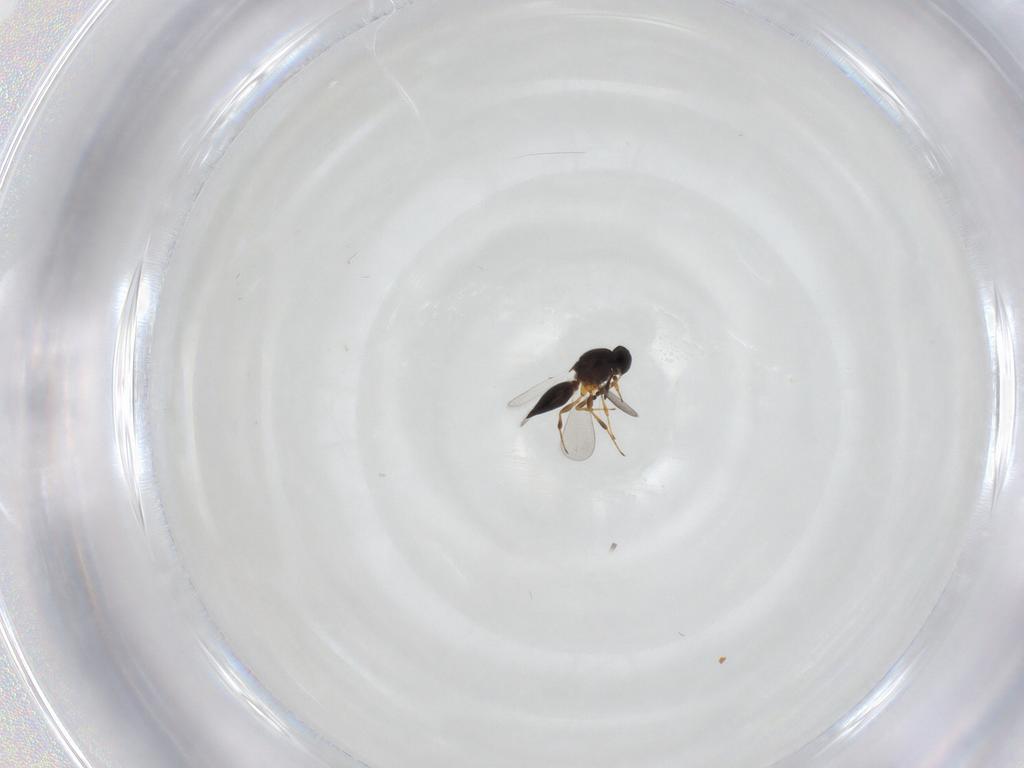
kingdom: Animalia
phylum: Arthropoda
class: Insecta
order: Hymenoptera
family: Platygastridae
